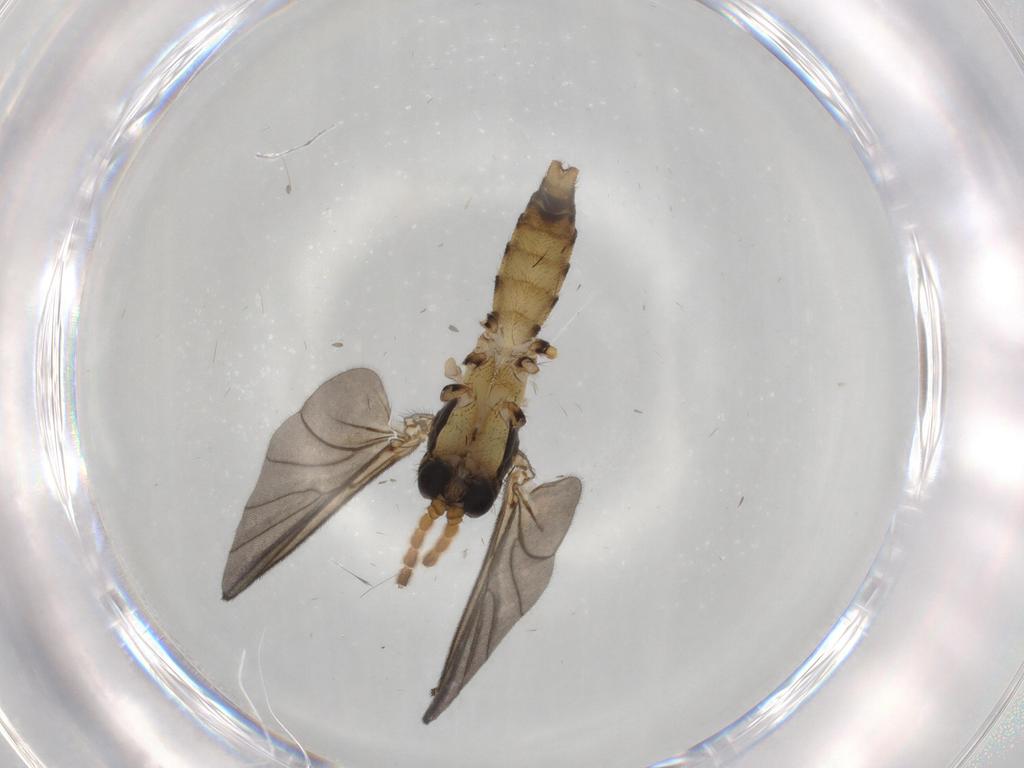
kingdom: Animalia
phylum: Arthropoda
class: Insecta
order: Diptera
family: Chironomidae
